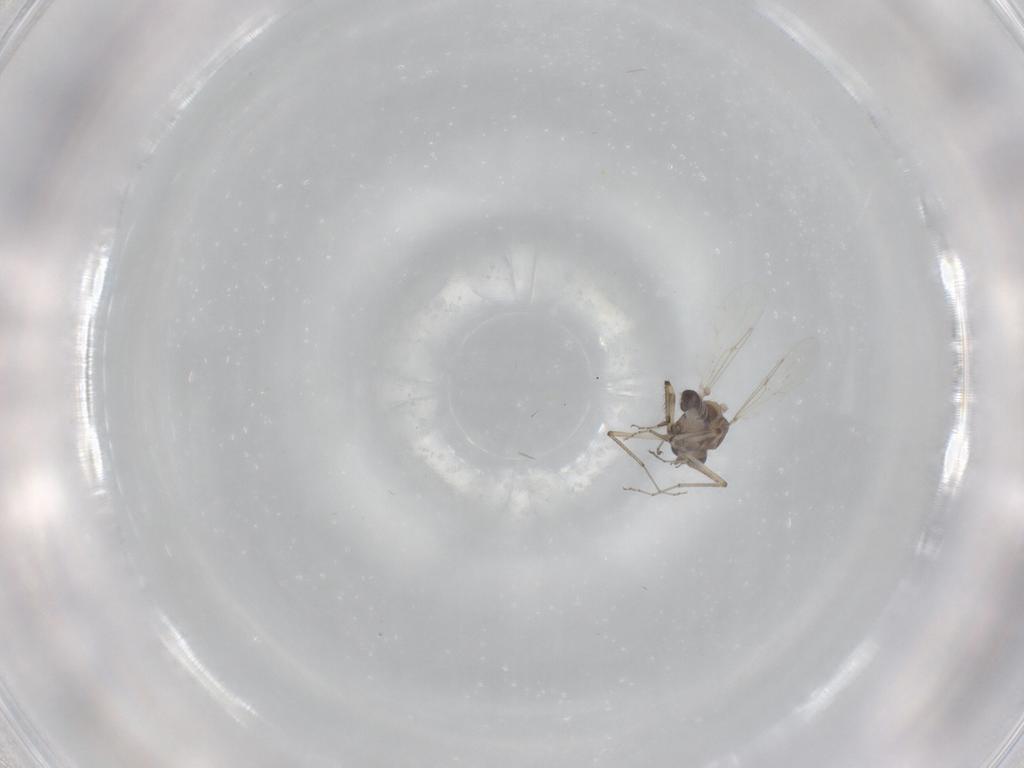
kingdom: Animalia
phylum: Arthropoda
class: Insecta
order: Diptera
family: Ceratopogonidae
